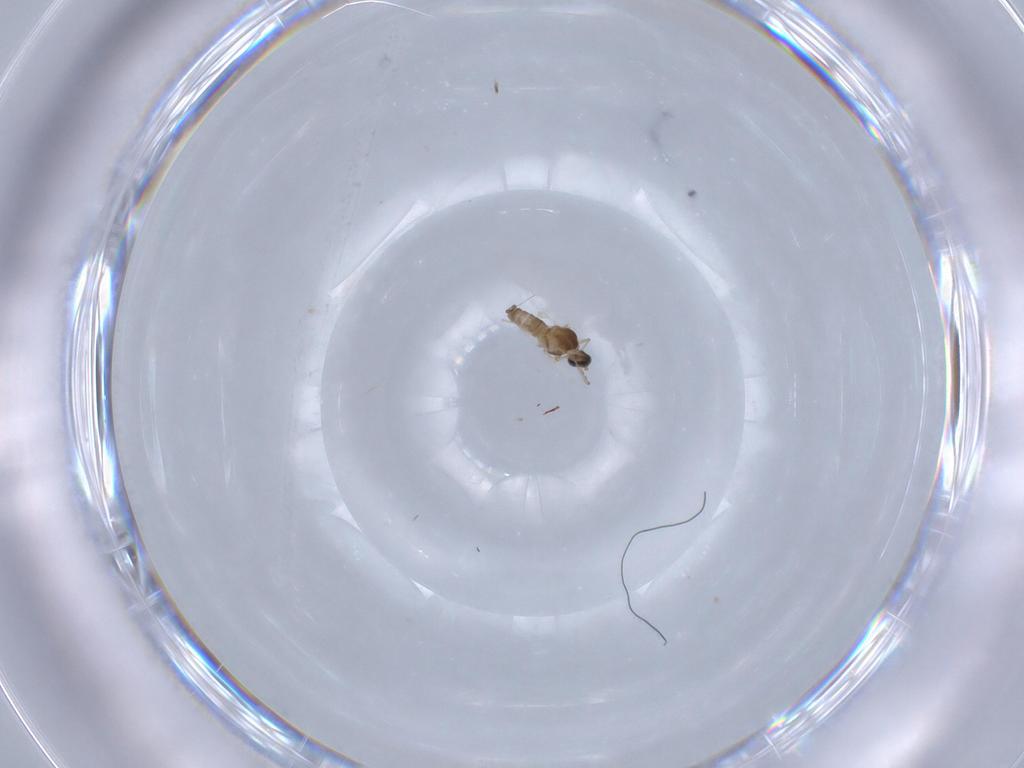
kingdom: Animalia
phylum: Arthropoda
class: Insecta
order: Diptera
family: Cecidomyiidae
